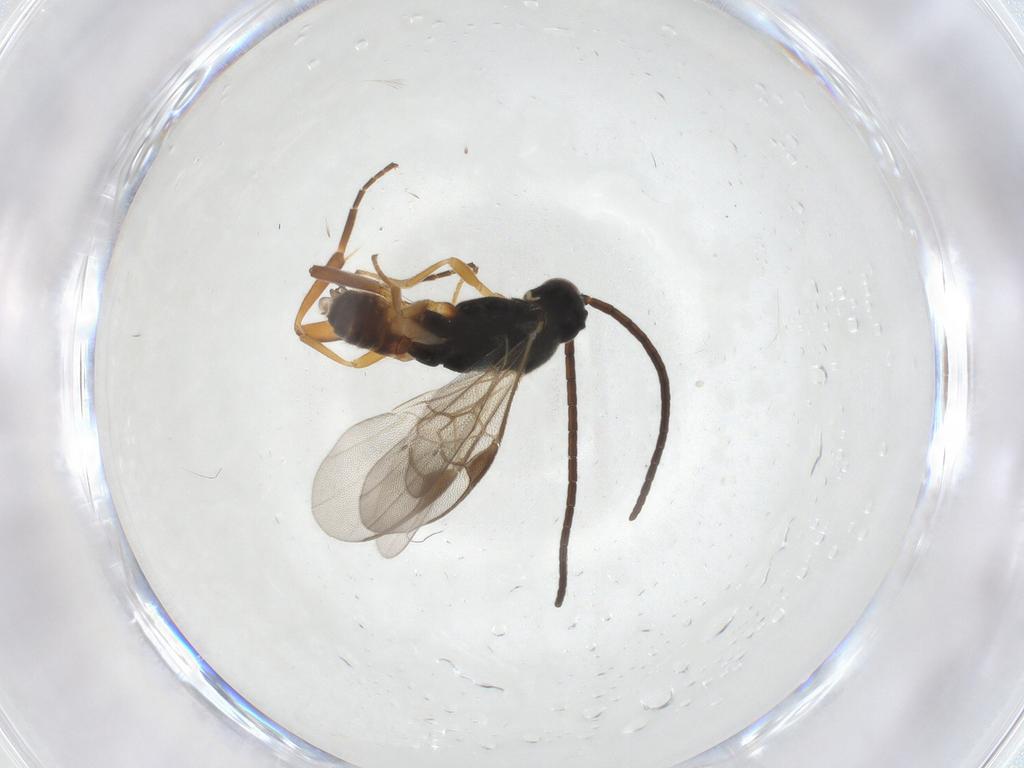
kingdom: Animalia
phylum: Arthropoda
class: Insecta
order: Hymenoptera
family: Braconidae
